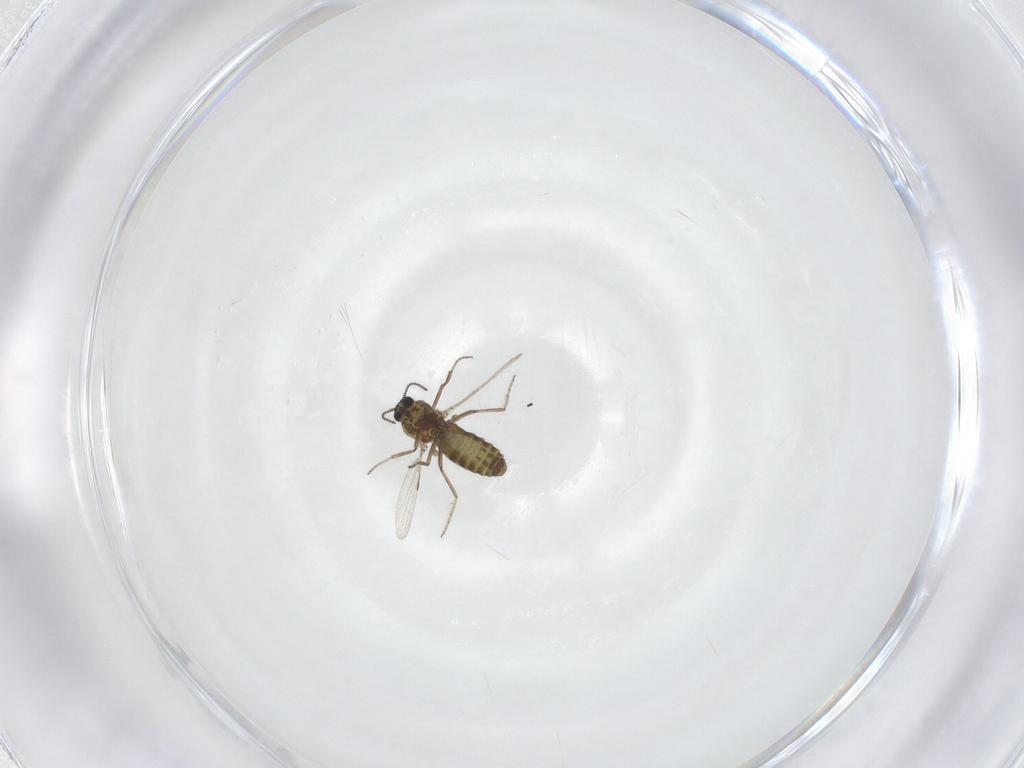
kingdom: Animalia
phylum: Arthropoda
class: Insecta
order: Diptera
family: Ceratopogonidae
